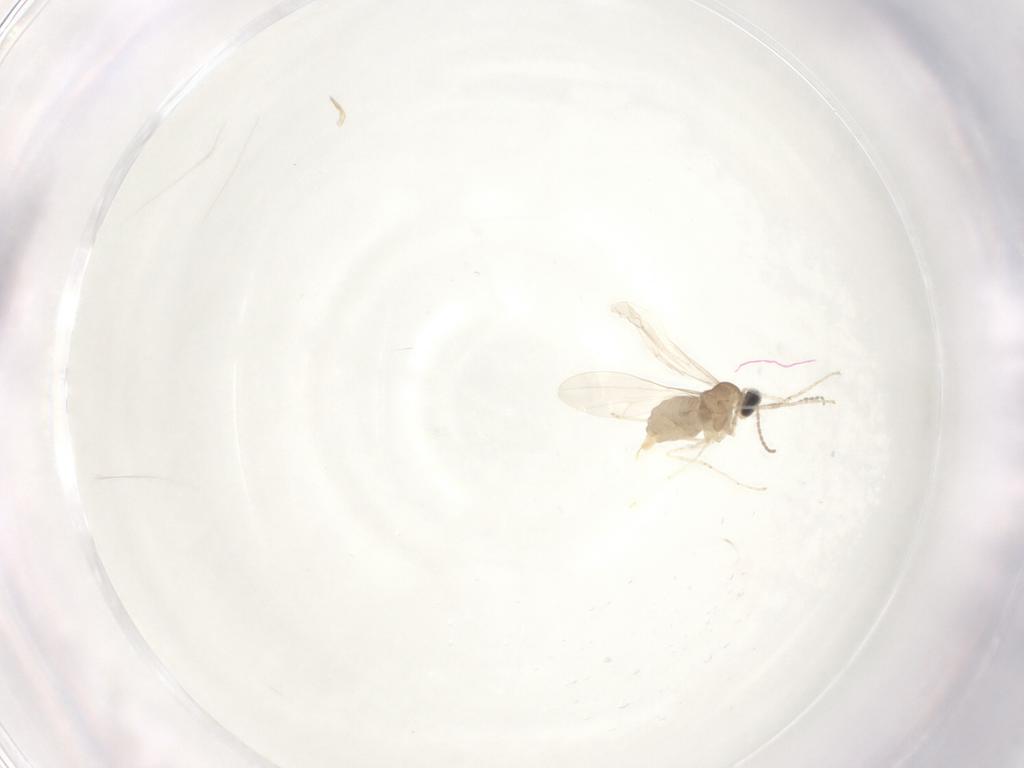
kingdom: Animalia
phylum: Arthropoda
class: Insecta
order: Diptera
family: Cecidomyiidae
